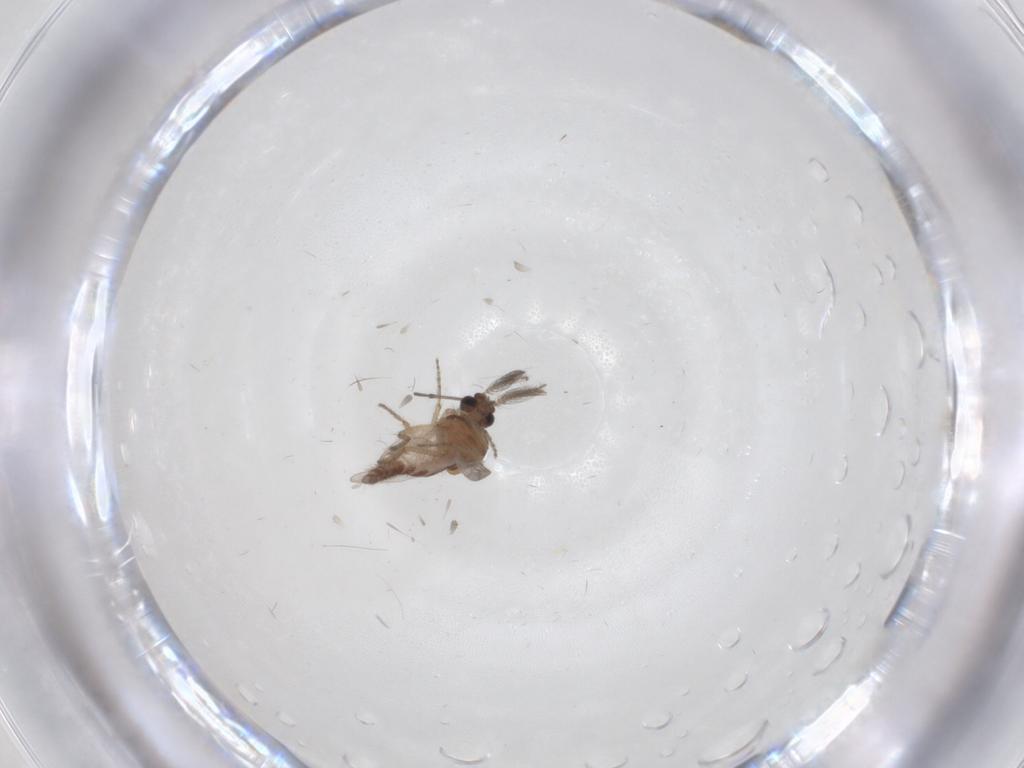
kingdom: Animalia
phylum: Arthropoda
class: Insecta
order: Diptera
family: Ceratopogonidae
